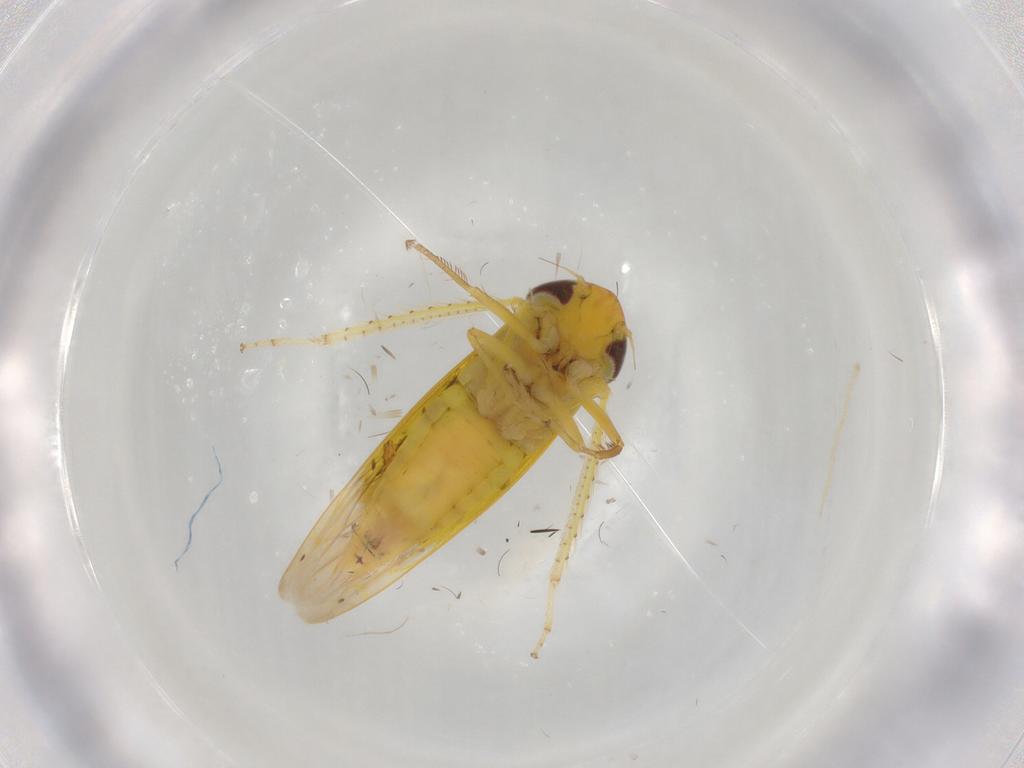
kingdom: Animalia
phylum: Arthropoda
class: Insecta
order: Hemiptera
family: Cicadellidae
